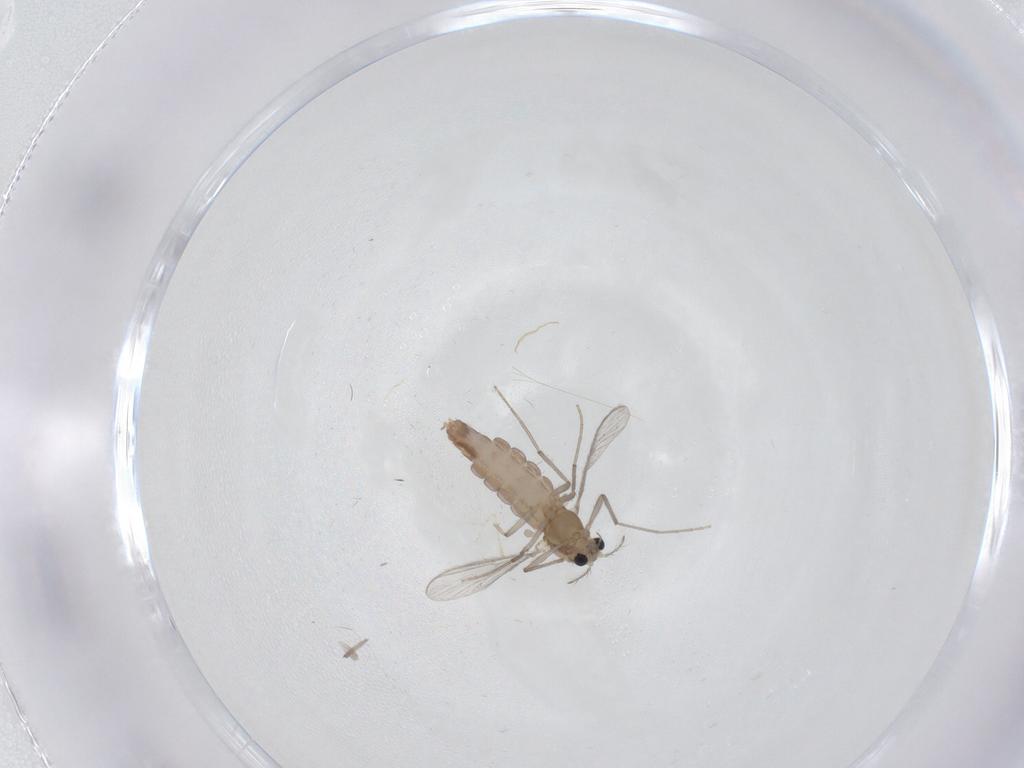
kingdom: Animalia
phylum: Arthropoda
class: Insecta
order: Diptera
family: Chironomidae
